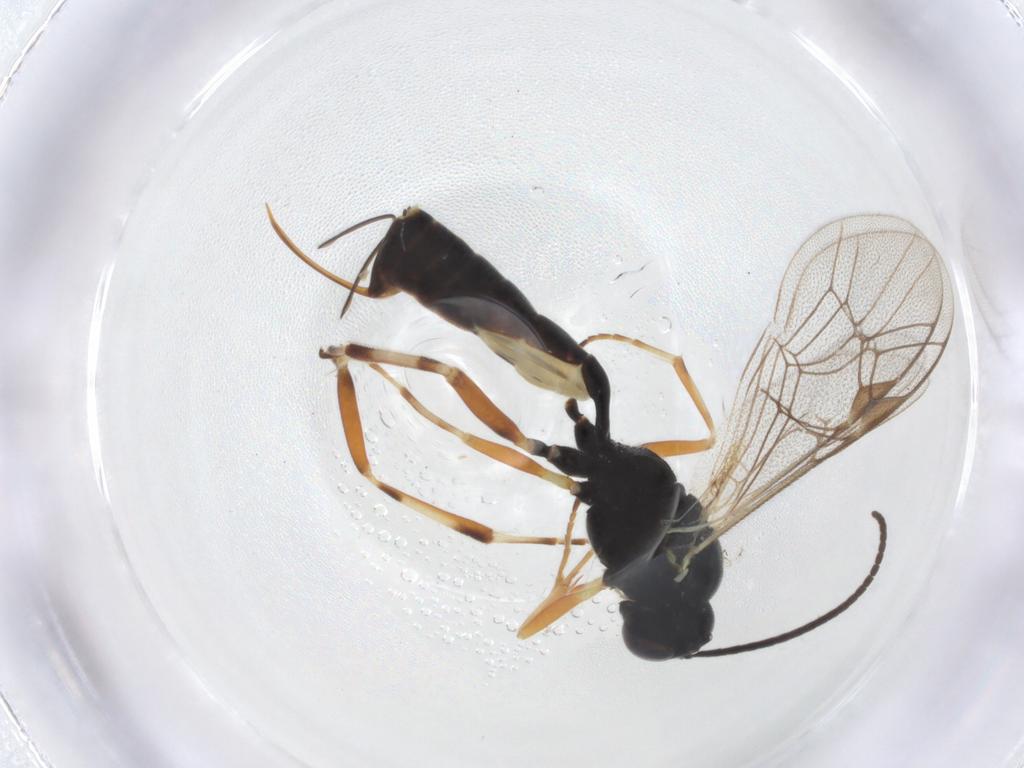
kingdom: Animalia
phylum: Arthropoda
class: Insecta
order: Hymenoptera
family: Ichneumonidae
